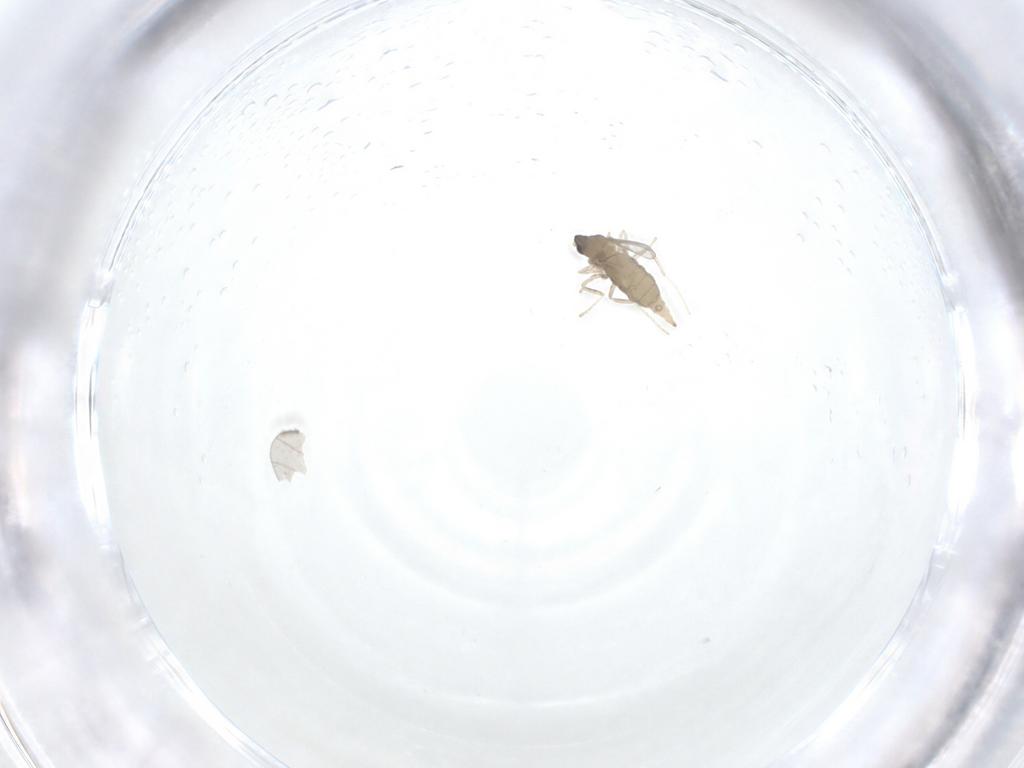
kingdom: Animalia
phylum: Arthropoda
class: Insecta
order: Diptera
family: Cecidomyiidae
